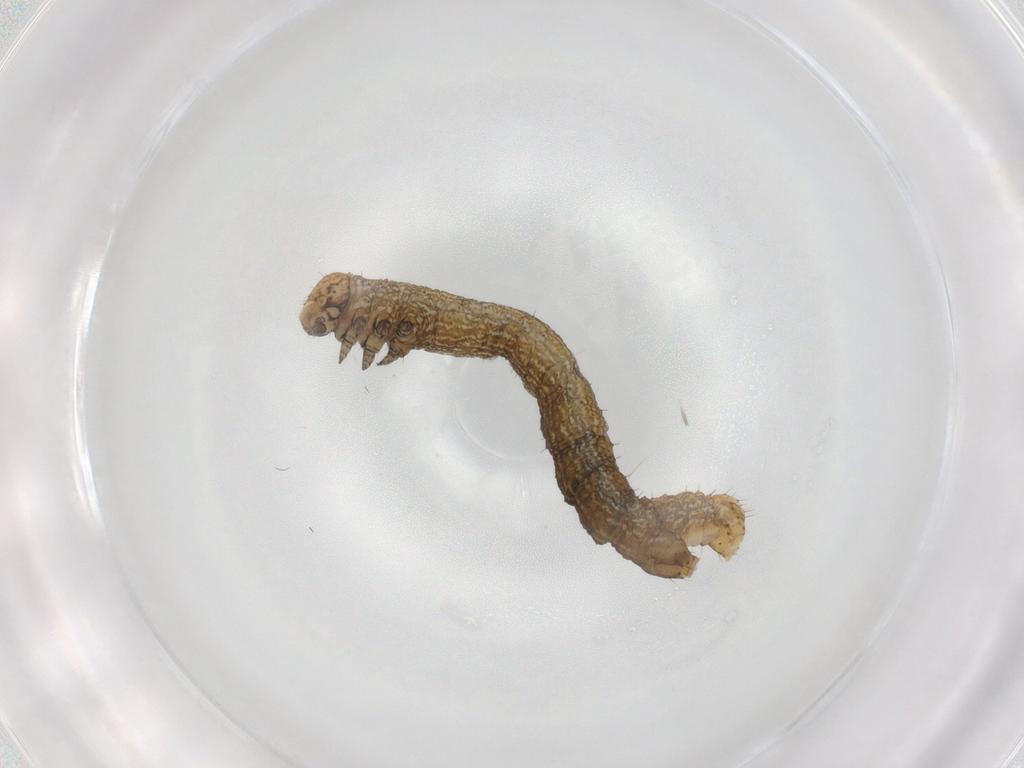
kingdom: Animalia
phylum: Arthropoda
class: Insecta
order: Lepidoptera
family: Geometridae
